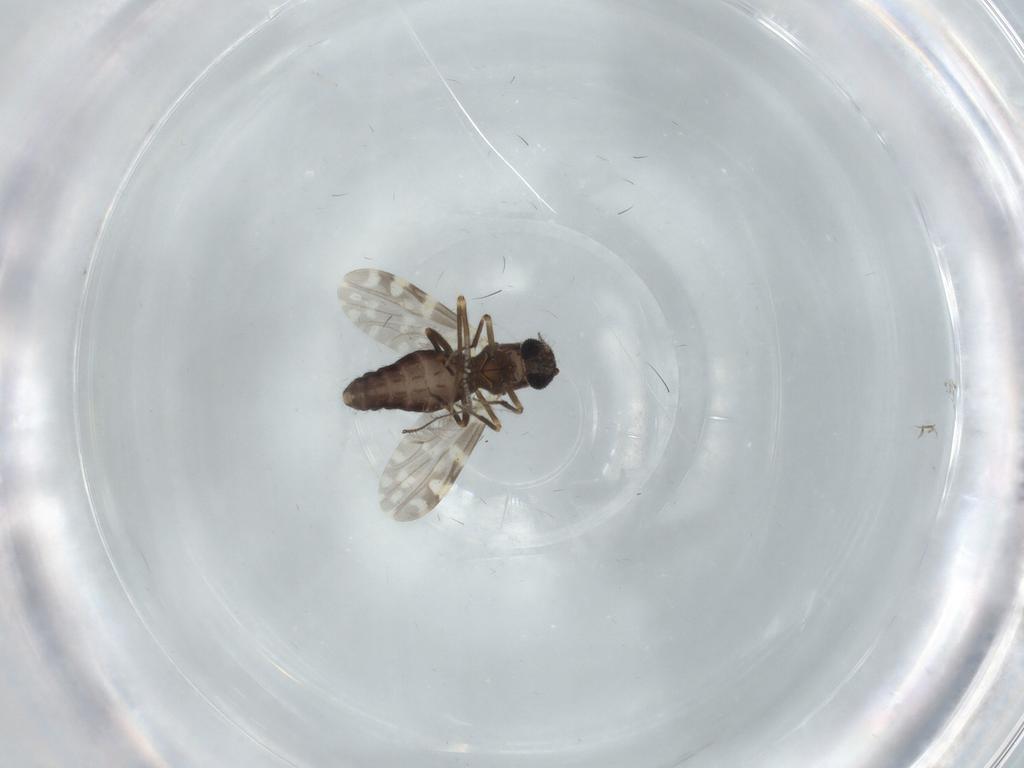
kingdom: Animalia
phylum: Arthropoda
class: Insecta
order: Diptera
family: Ceratopogonidae
